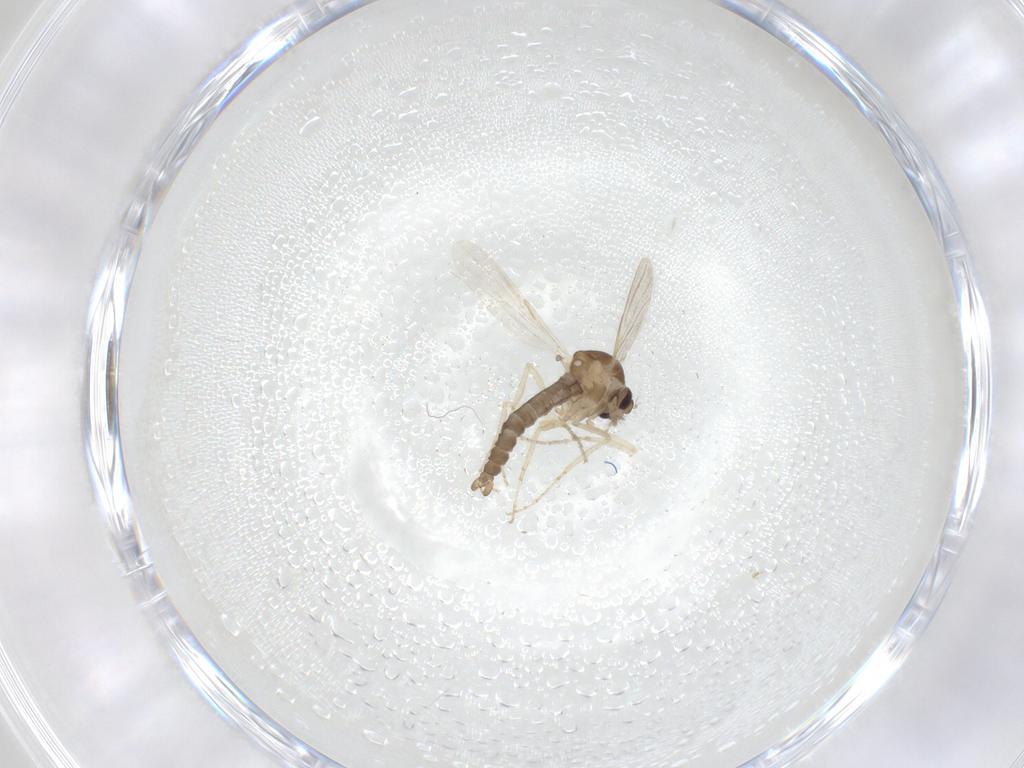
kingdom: Animalia
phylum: Arthropoda
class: Insecta
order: Diptera
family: Ceratopogonidae
